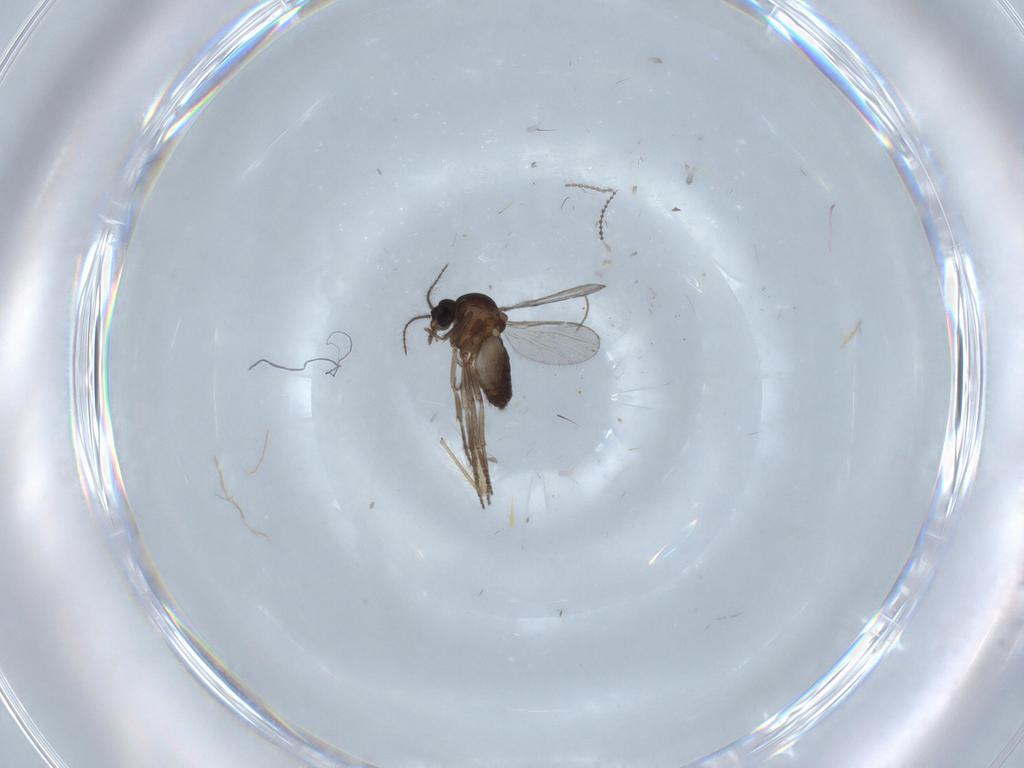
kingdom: Animalia
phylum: Arthropoda
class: Insecta
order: Diptera
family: Chironomidae
